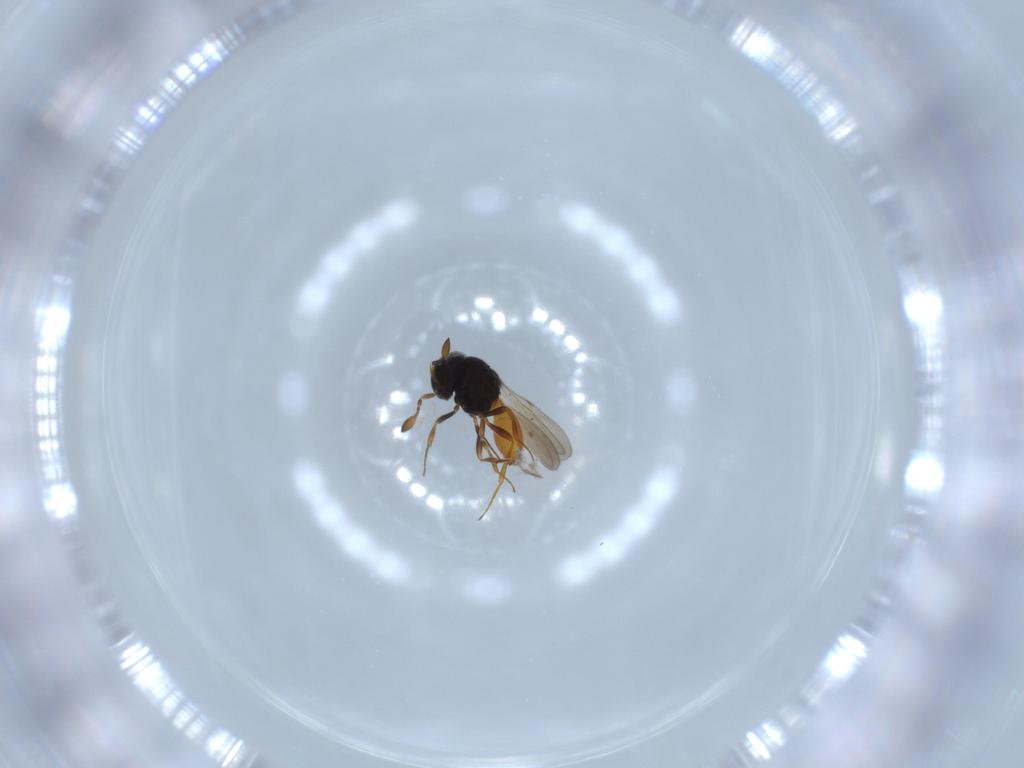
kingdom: Animalia
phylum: Arthropoda
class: Insecta
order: Hymenoptera
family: Scelionidae
